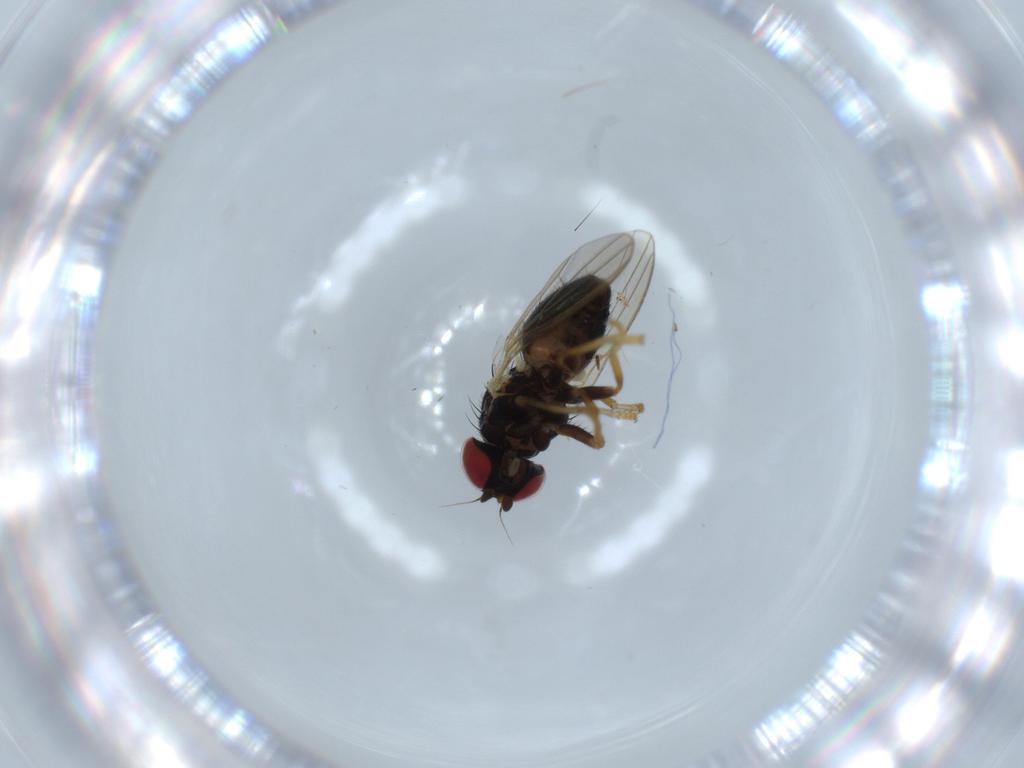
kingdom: Animalia
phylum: Arthropoda
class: Insecta
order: Diptera
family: Chamaemyiidae
